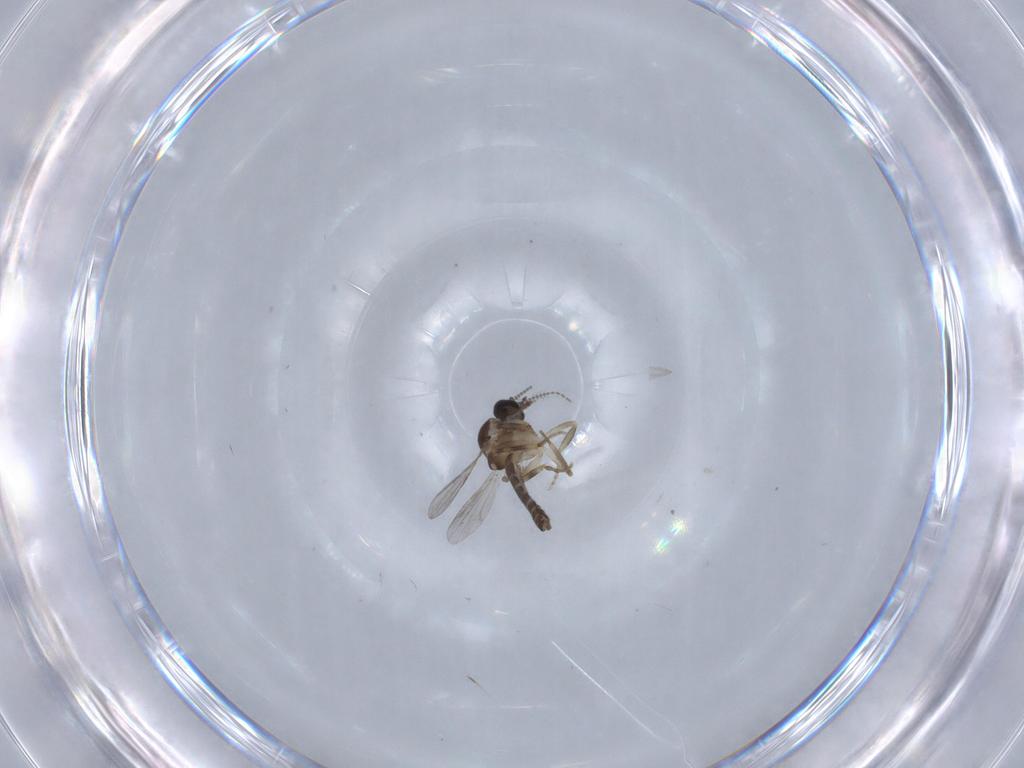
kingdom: Animalia
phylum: Arthropoda
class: Insecta
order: Diptera
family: Ceratopogonidae
